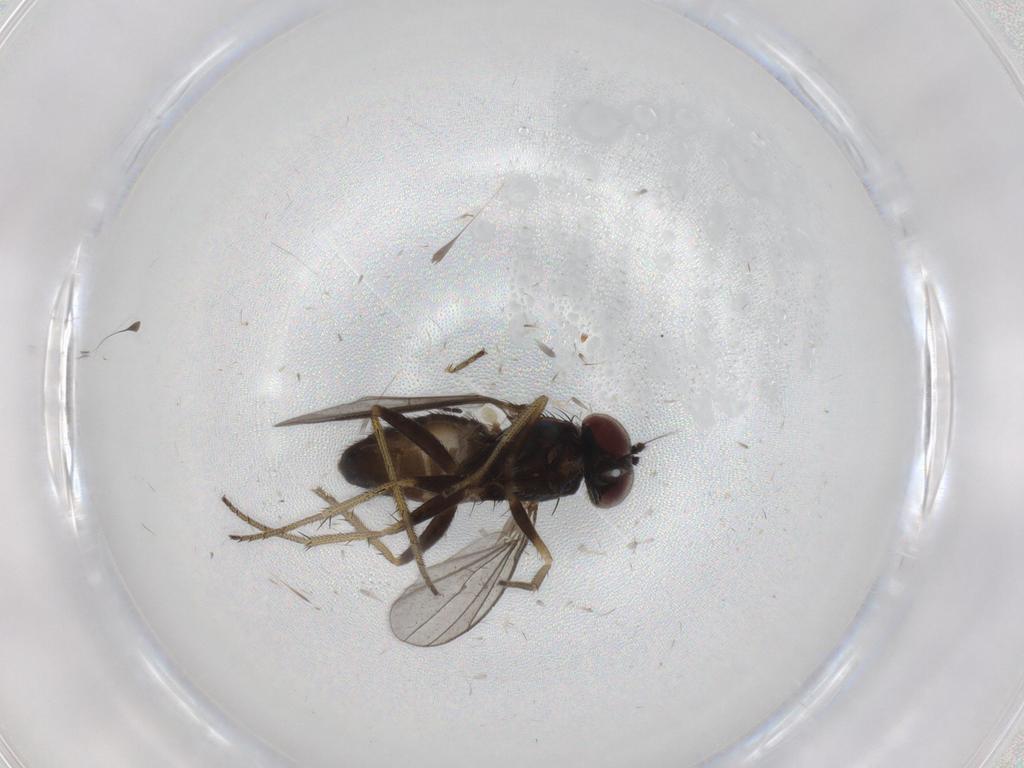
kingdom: Animalia
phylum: Arthropoda
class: Insecta
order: Diptera
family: Ceratopogonidae
